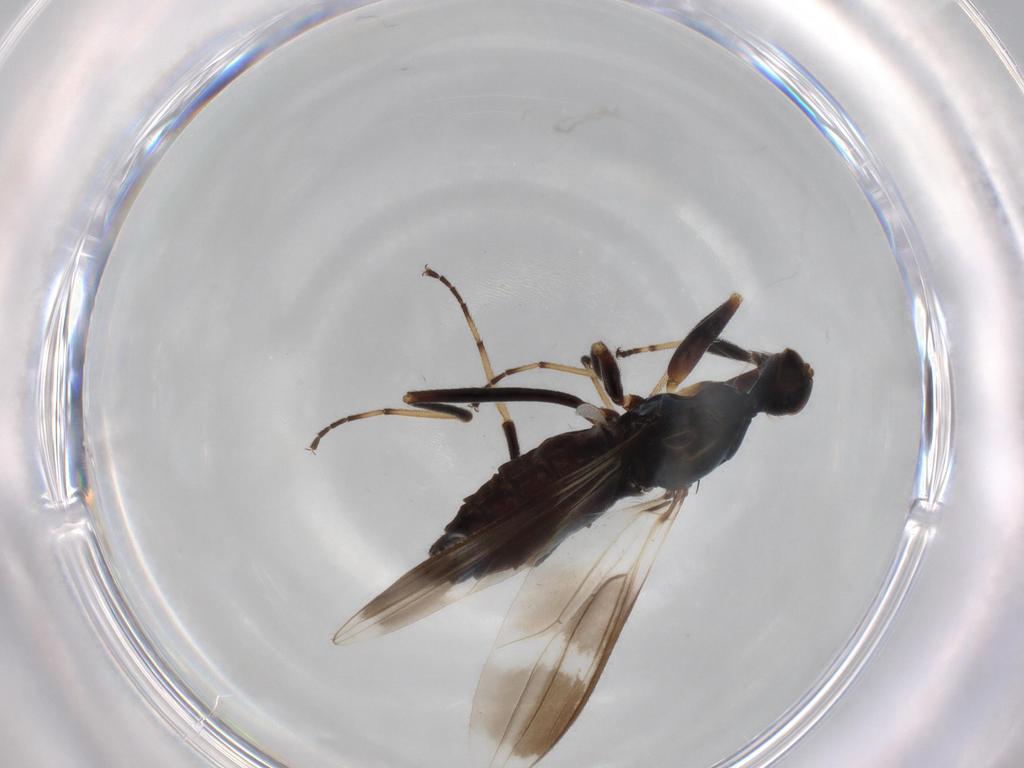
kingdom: Animalia
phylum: Arthropoda
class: Insecta
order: Diptera
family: Hybotidae
